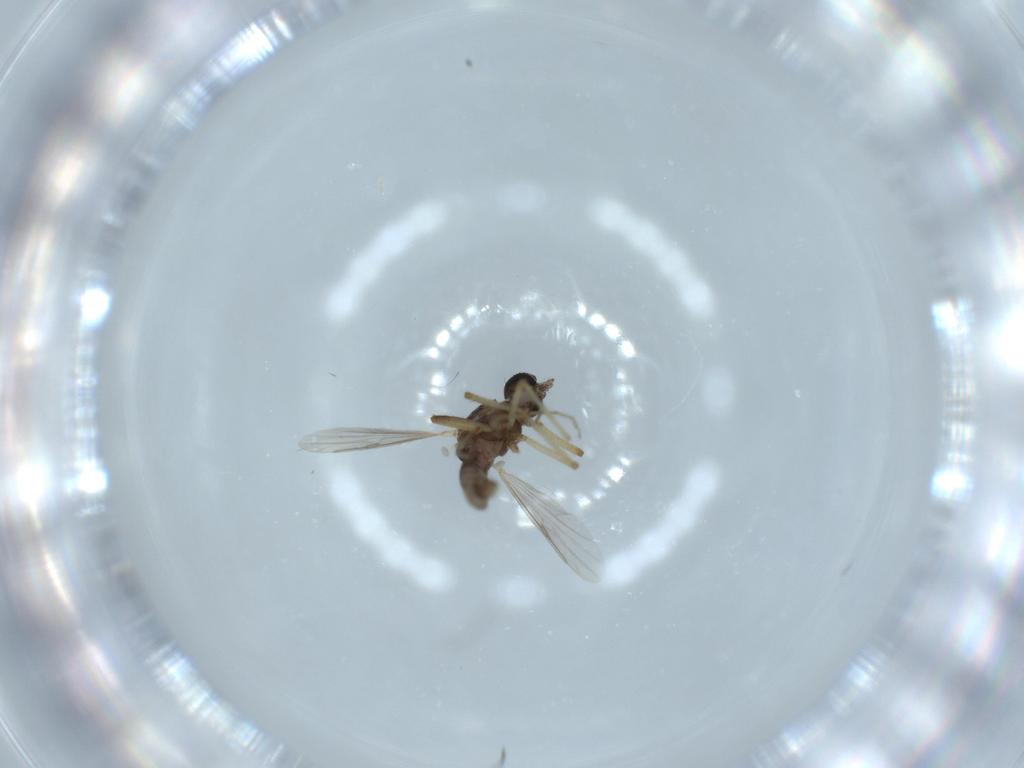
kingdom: Animalia
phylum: Arthropoda
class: Insecta
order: Diptera
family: Ceratopogonidae
